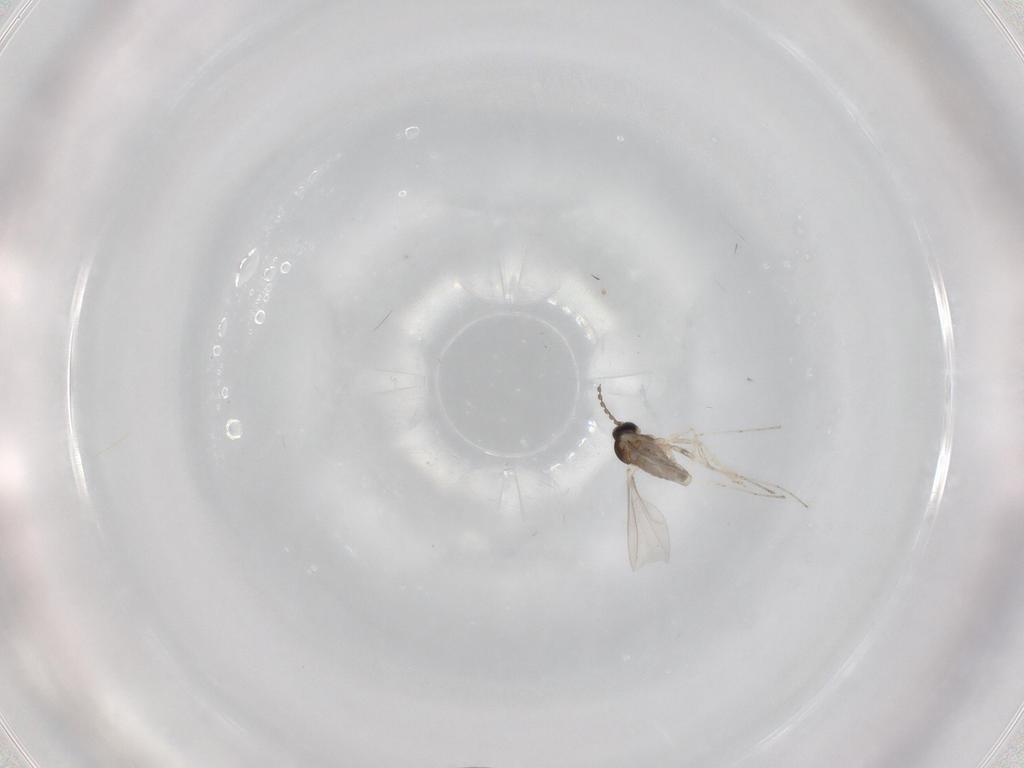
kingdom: Animalia
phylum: Arthropoda
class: Insecta
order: Diptera
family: Cecidomyiidae
